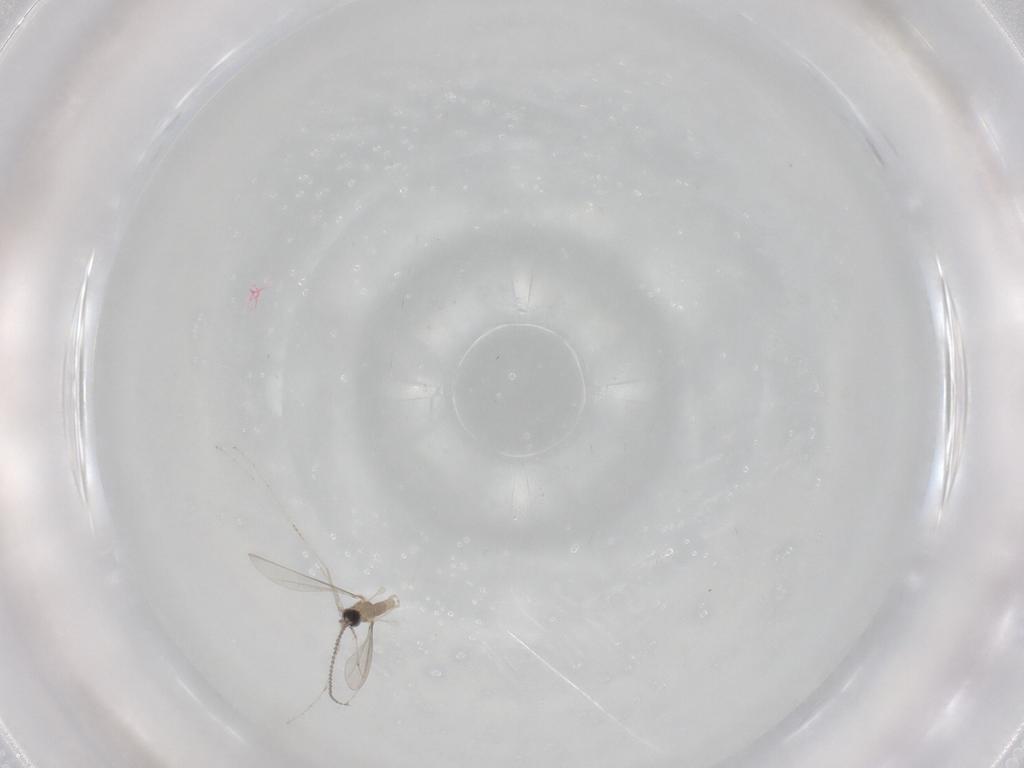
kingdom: Animalia
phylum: Arthropoda
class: Insecta
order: Diptera
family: Cecidomyiidae
